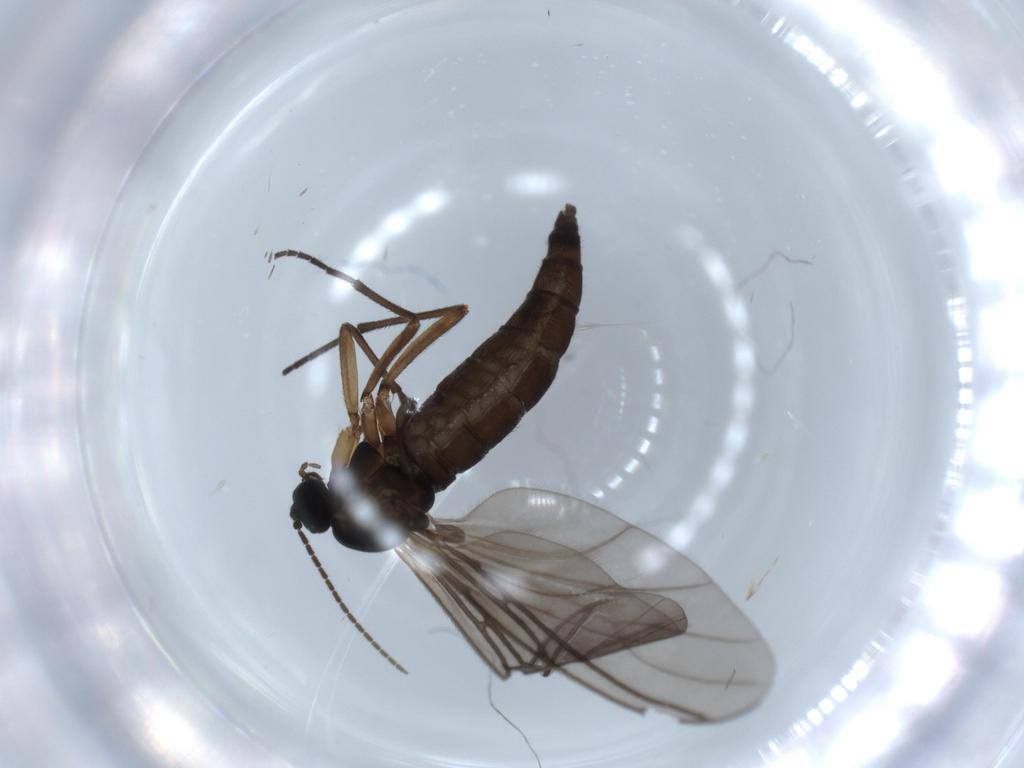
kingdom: Animalia
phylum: Arthropoda
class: Insecta
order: Diptera
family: Sciaridae
